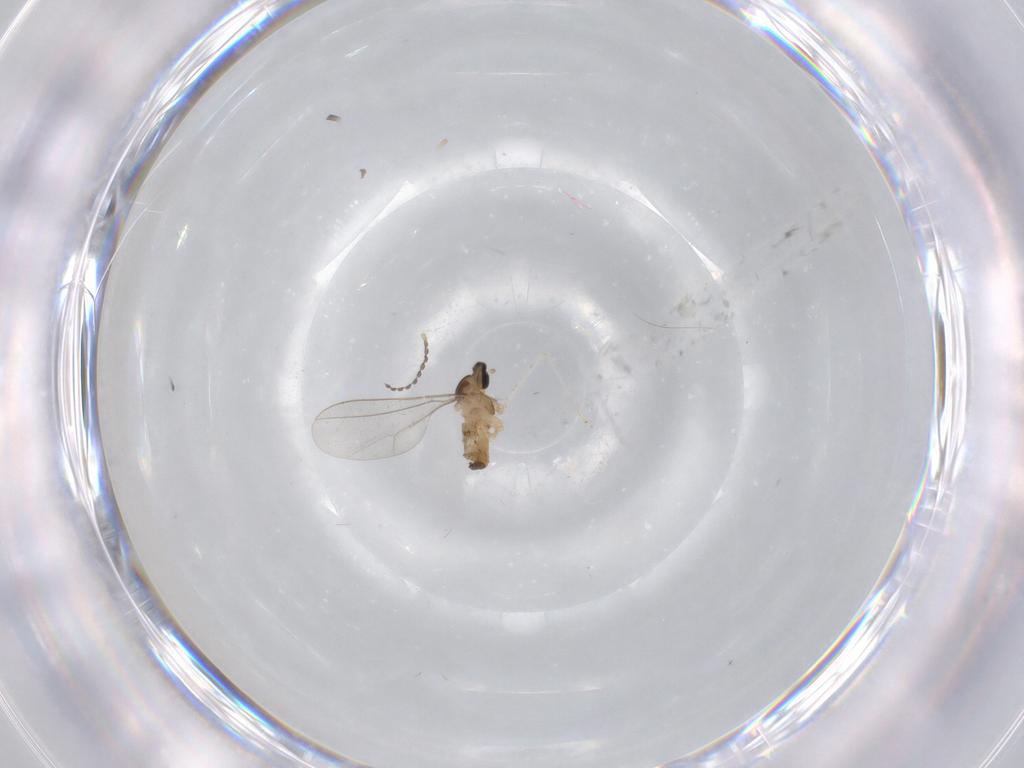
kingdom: Animalia
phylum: Arthropoda
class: Insecta
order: Diptera
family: Cecidomyiidae
